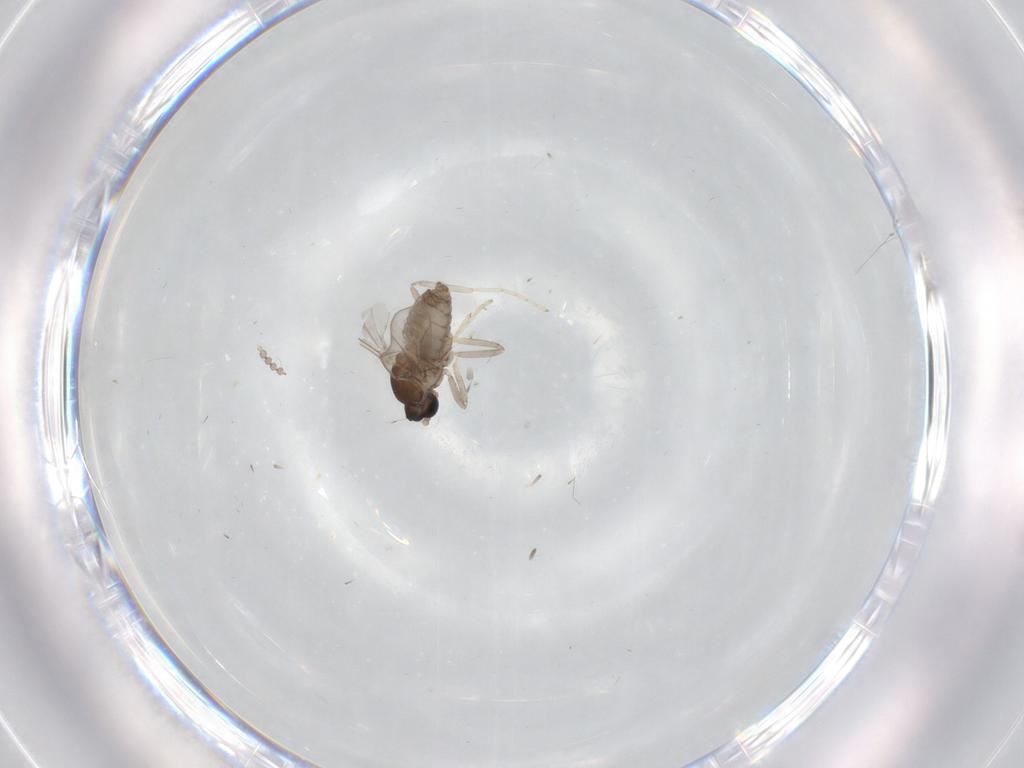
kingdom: Animalia
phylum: Arthropoda
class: Insecta
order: Diptera
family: Cecidomyiidae
